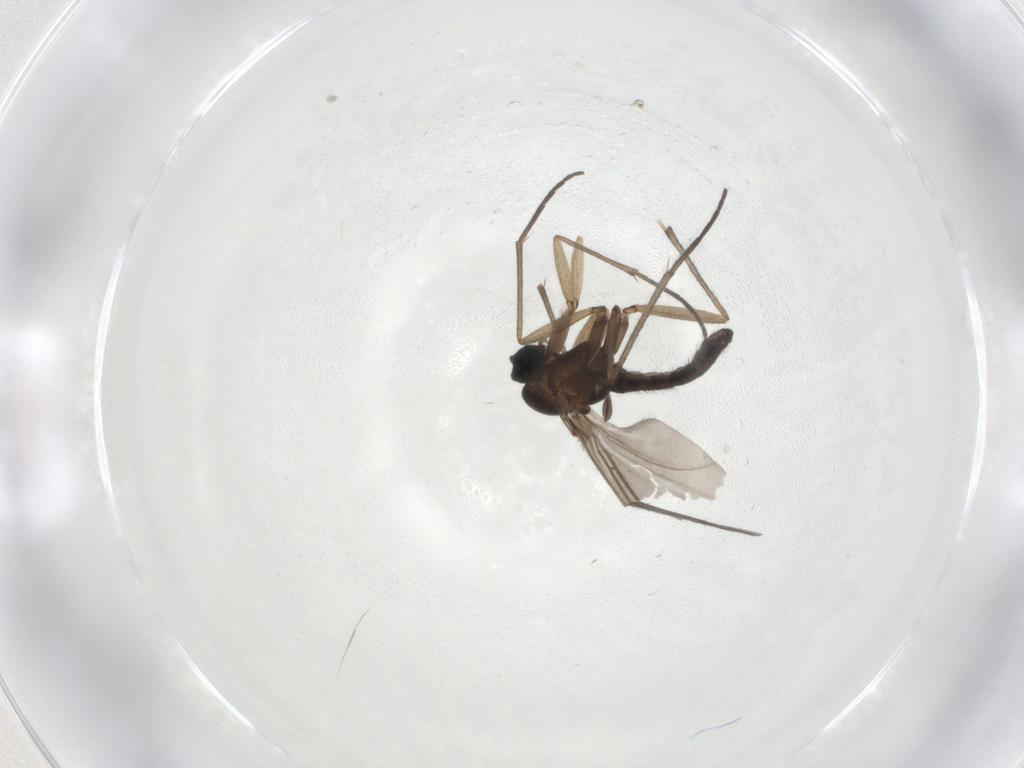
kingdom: Animalia
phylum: Arthropoda
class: Insecta
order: Diptera
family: Sciaridae
